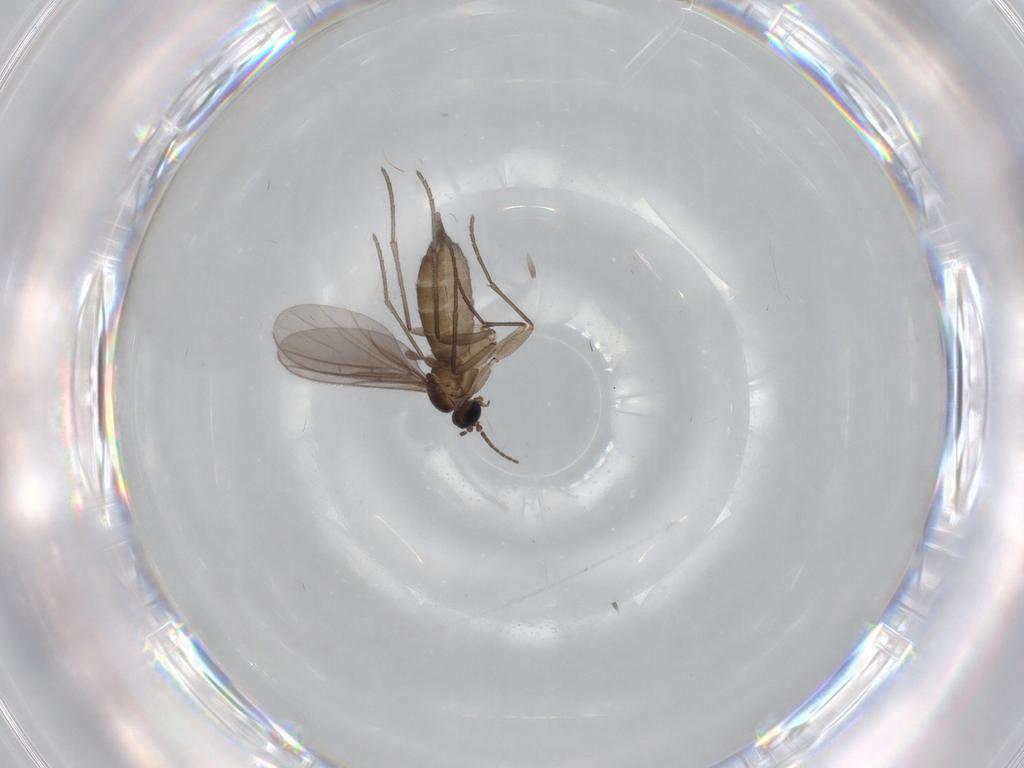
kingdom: Animalia
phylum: Arthropoda
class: Insecta
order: Diptera
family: Sciaridae
